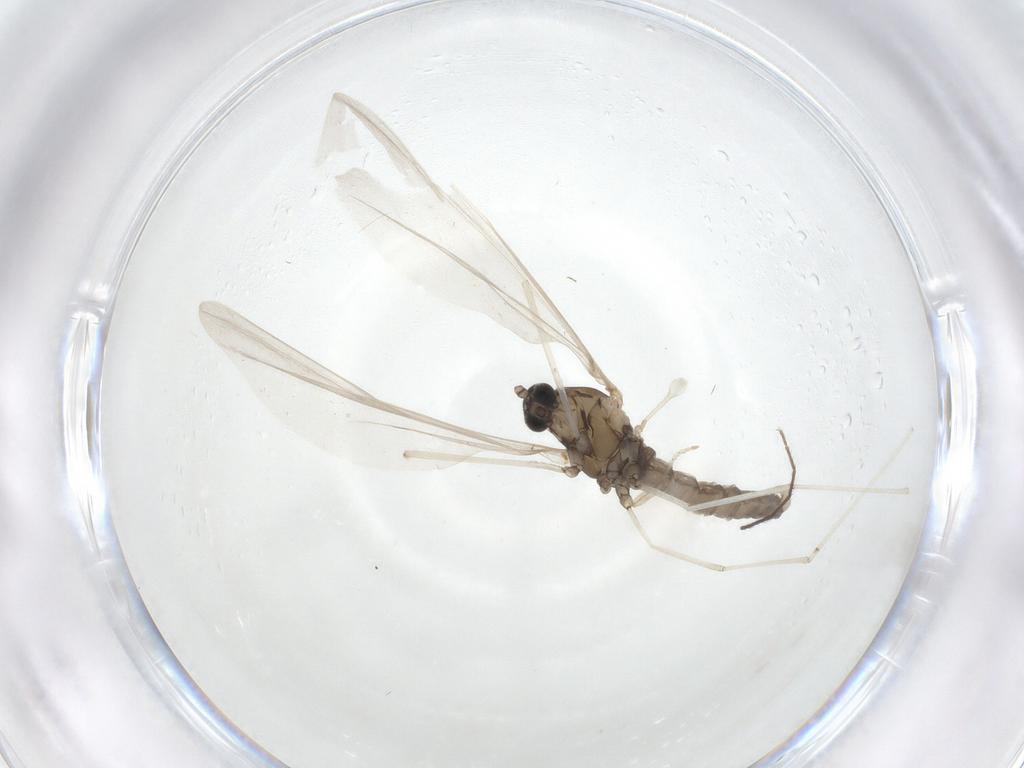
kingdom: Animalia
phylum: Arthropoda
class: Insecta
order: Diptera
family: Cecidomyiidae
